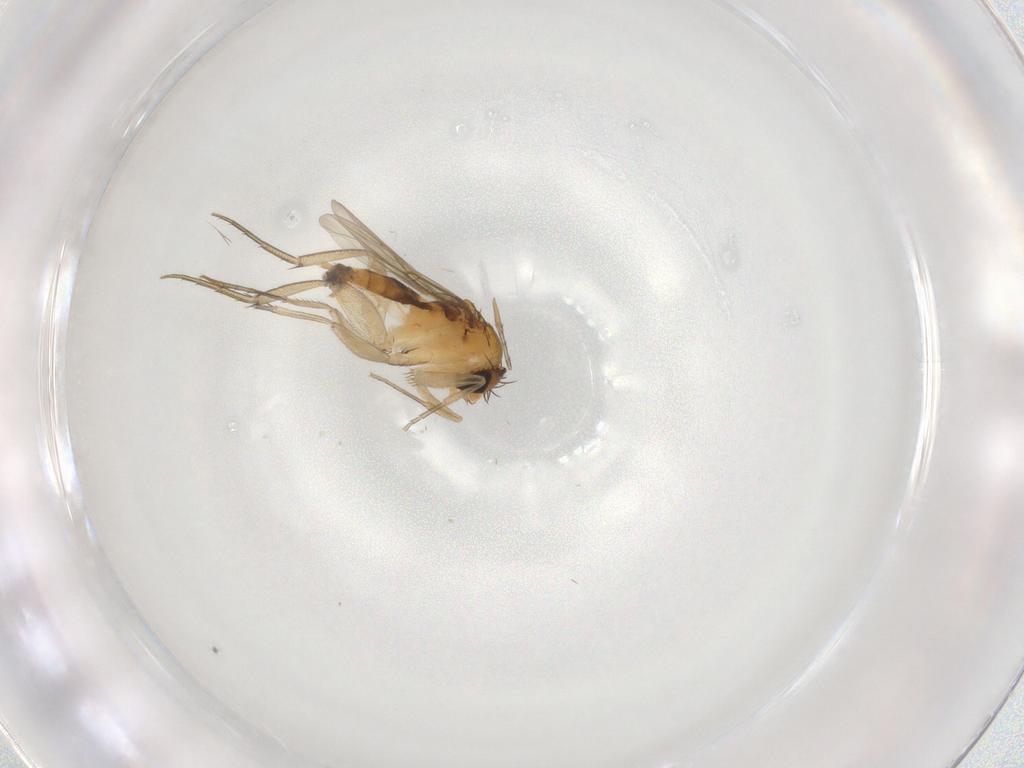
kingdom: Animalia
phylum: Arthropoda
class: Insecta
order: Diptera
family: Phoridae
